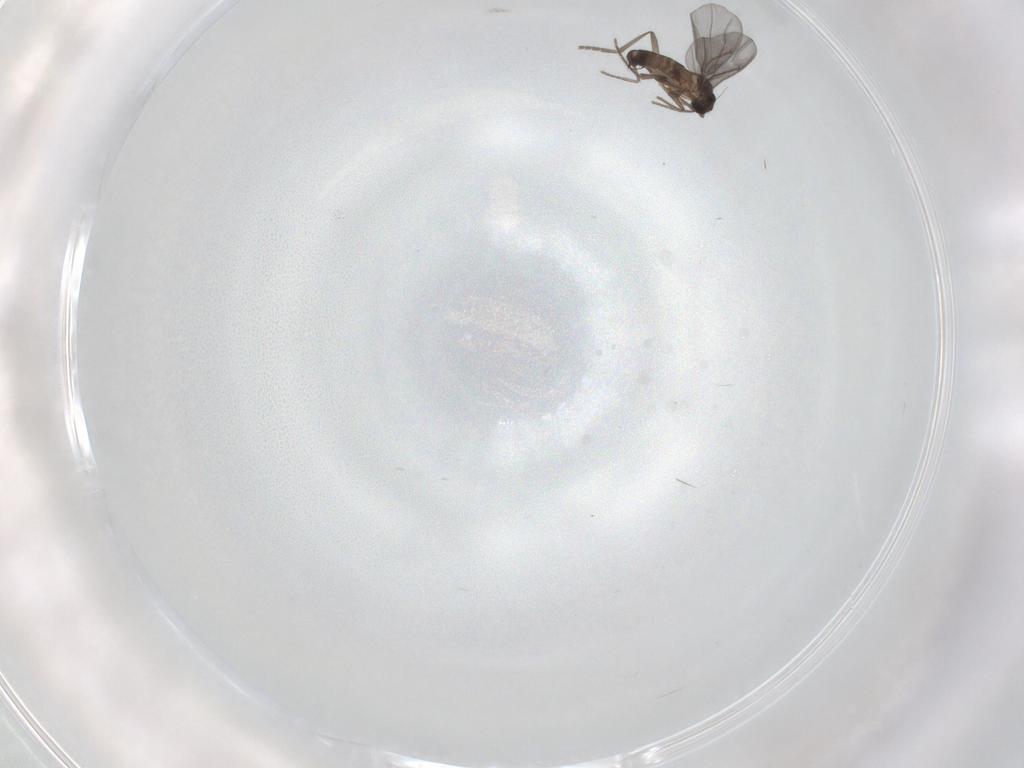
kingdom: Animalia
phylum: Arthropoda
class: Insecta
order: Diptera
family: Phoridae
